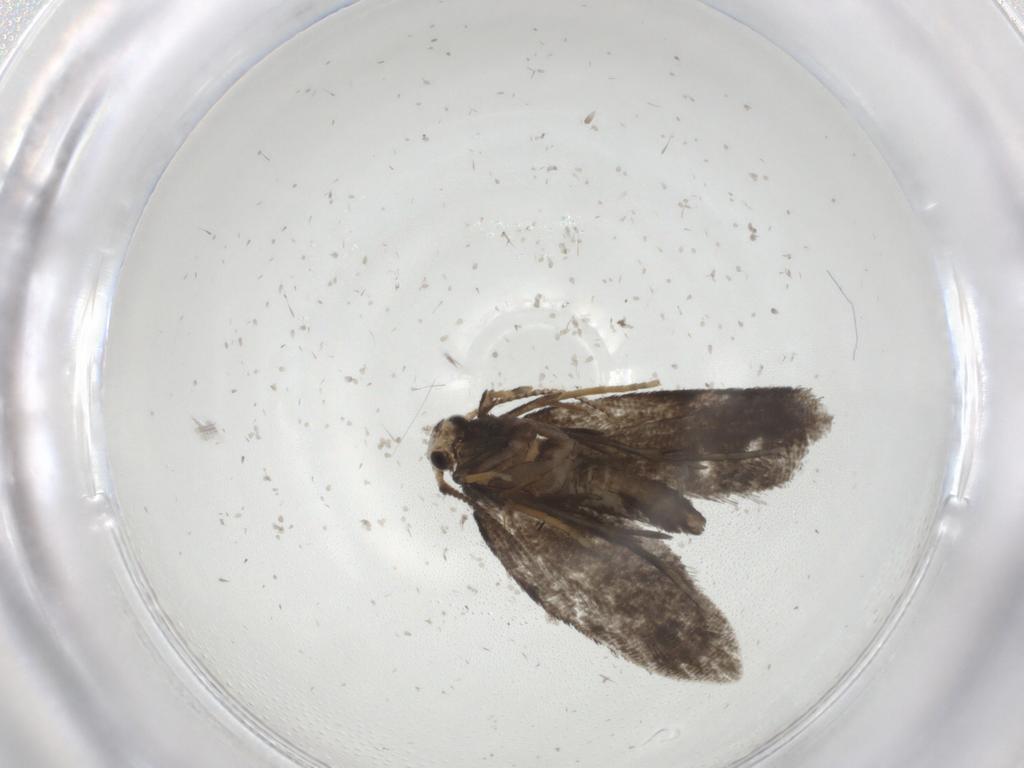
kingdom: Animalia
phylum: Arthropoda
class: Insecta
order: Lepidoptera
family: Psychidae
